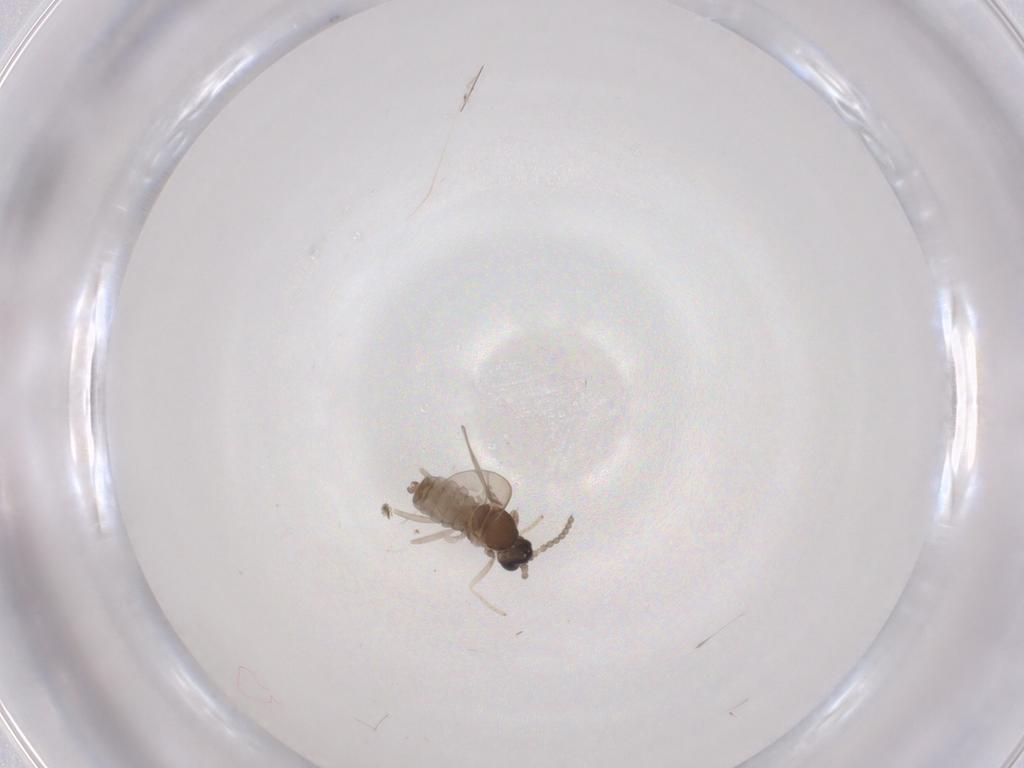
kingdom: Animalia
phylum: Arthropoda
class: Insecta
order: Diptera
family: Cecidomyiidae
